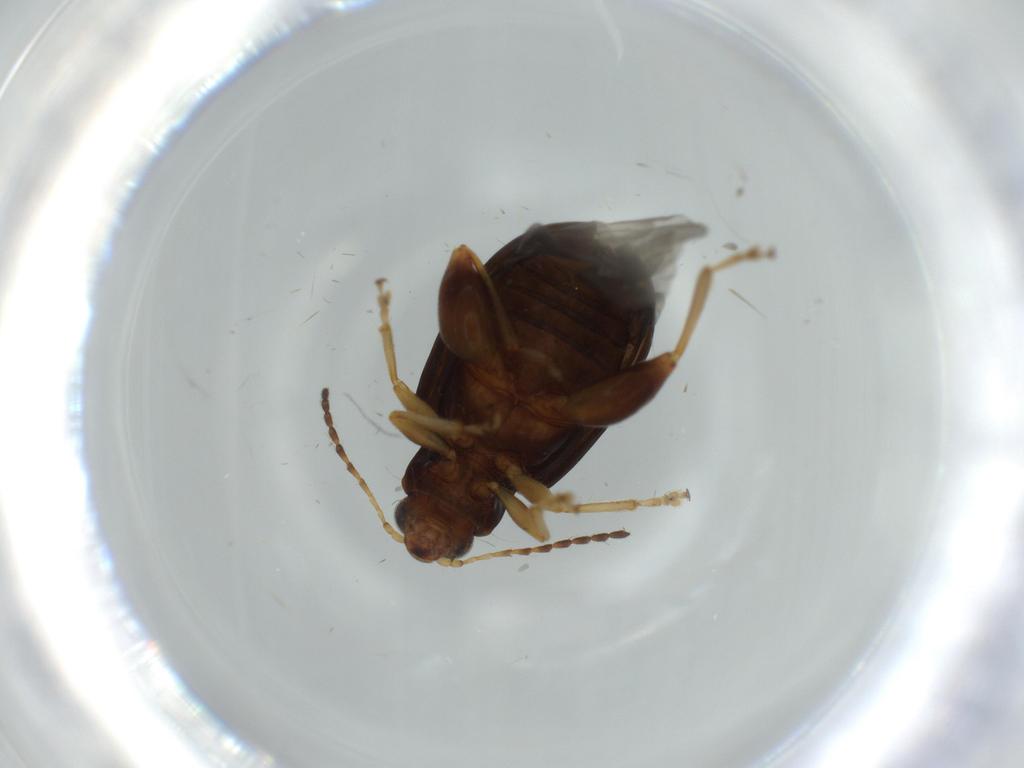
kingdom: Animalia
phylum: Arthropoda
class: Insecta
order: Coleoptera
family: Chrysomelidae
